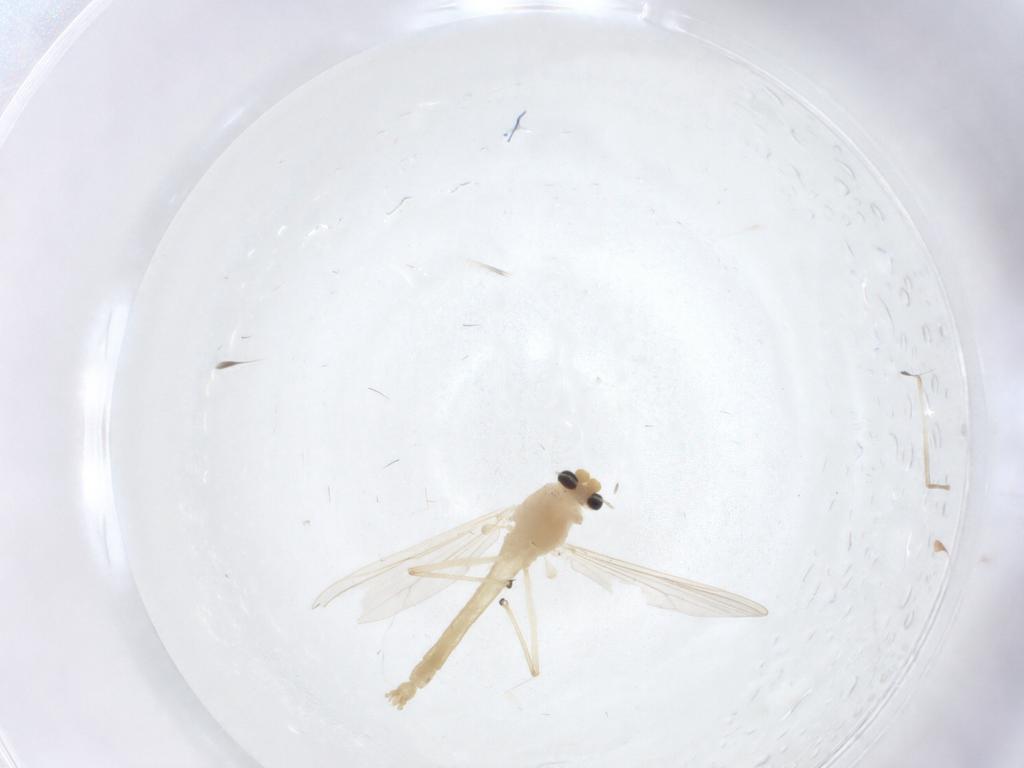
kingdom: Animalia
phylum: Arthropoda
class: Insecta
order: Diptera
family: Chironomidae
